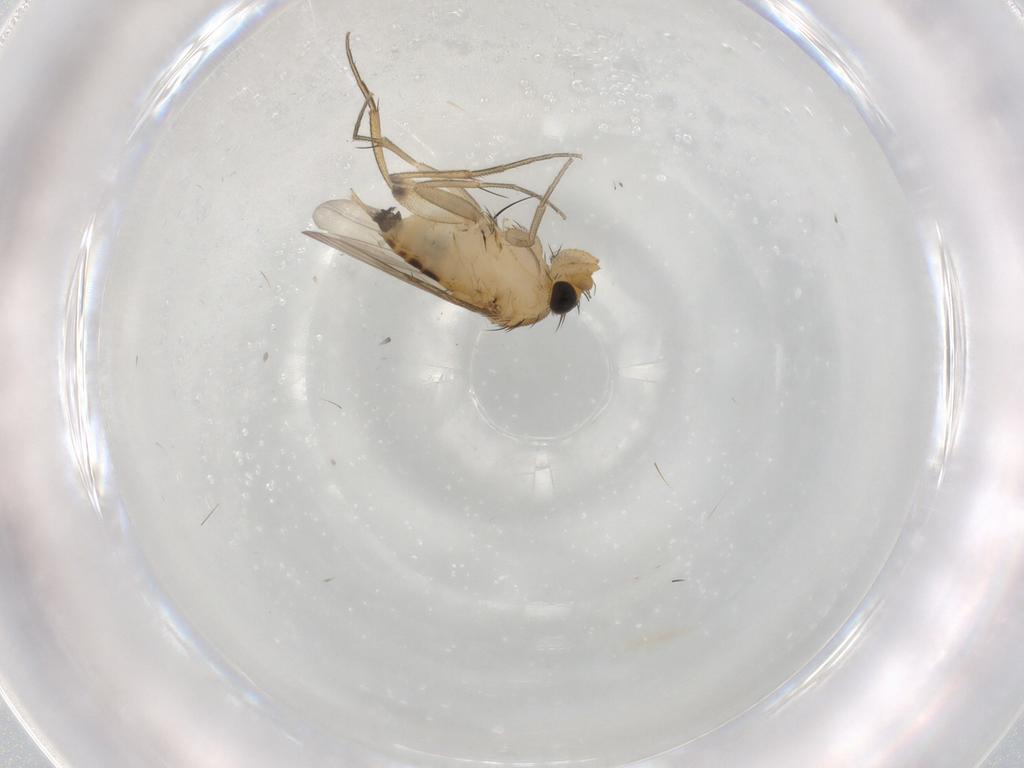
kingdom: Animalia
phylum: Arthropoda
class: Insecta
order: Diptera
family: Phoridae
